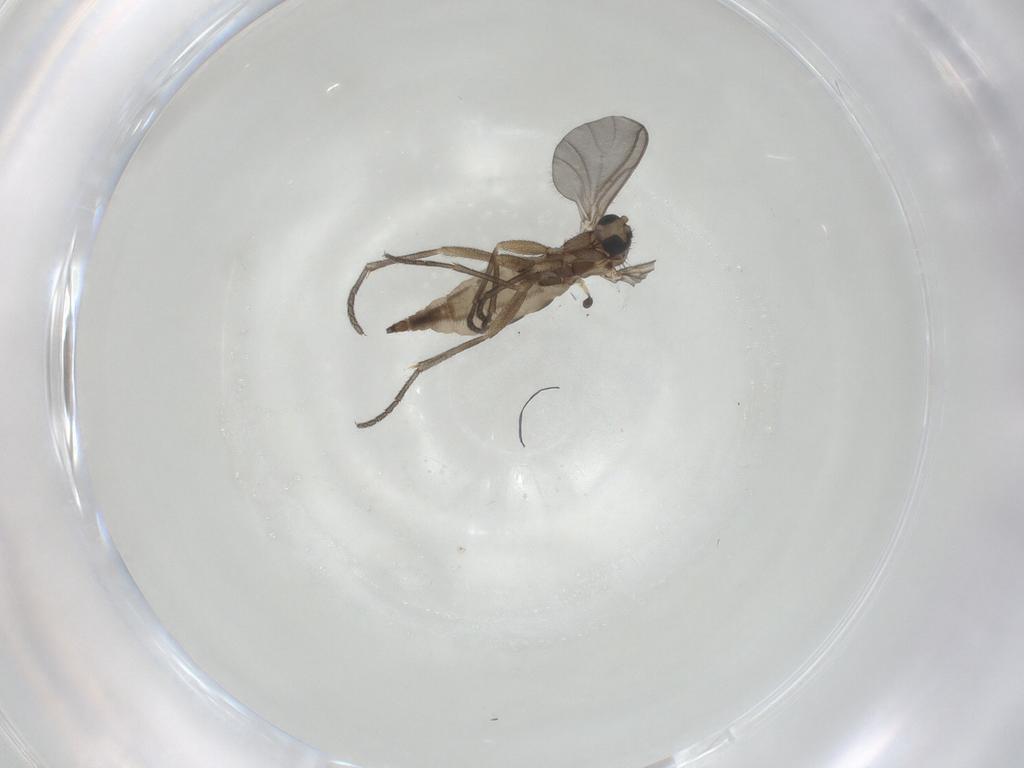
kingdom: Animalia
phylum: Arthropoda
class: Insecta
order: Diptera
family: Sciaridae
